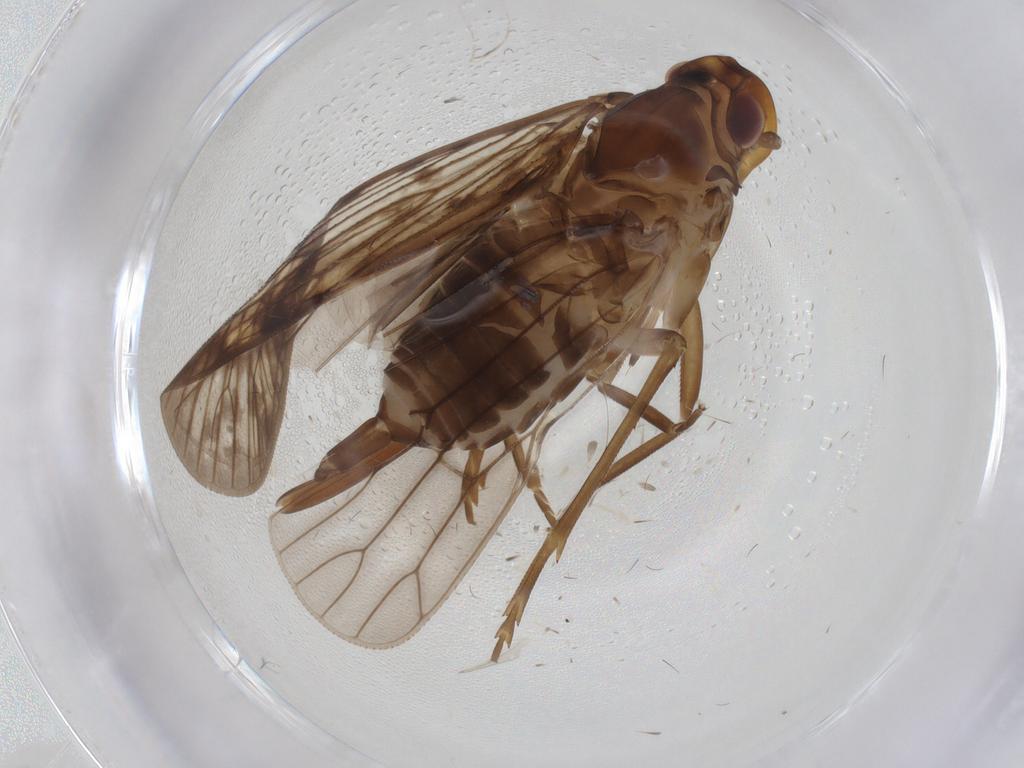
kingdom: Animalia
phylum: Arthropoda
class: Insecta
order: Hemiptera
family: Cixiidae
